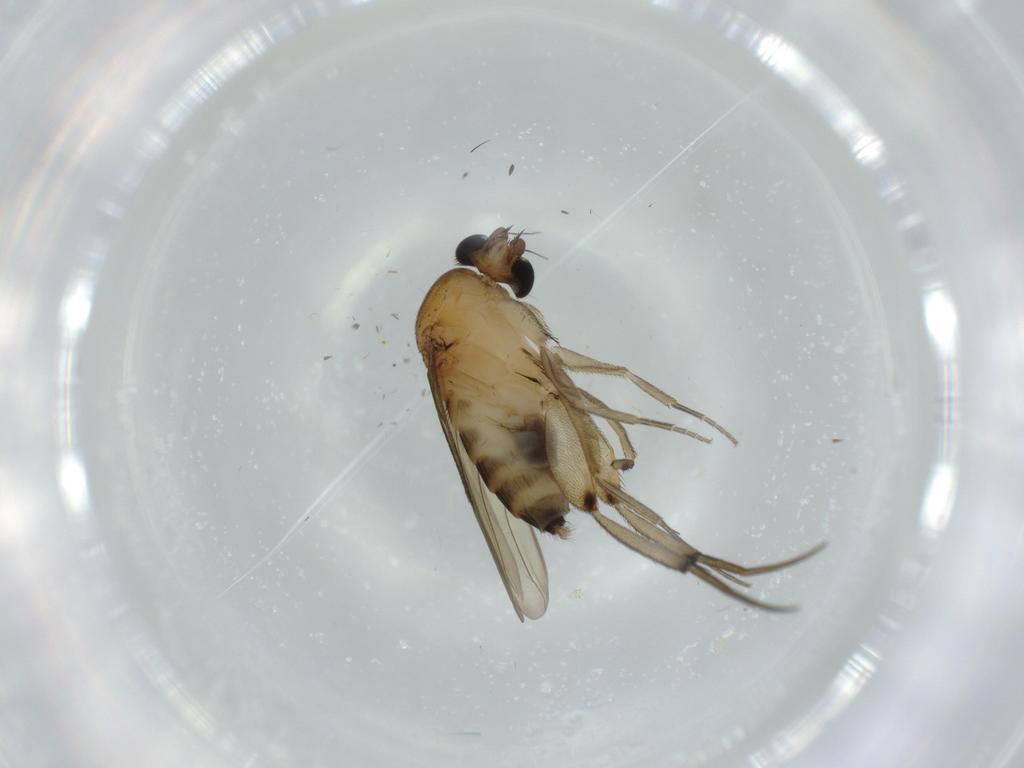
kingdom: Animalia
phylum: Arthropoda
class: Insecta
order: Diptera
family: Phoridae
